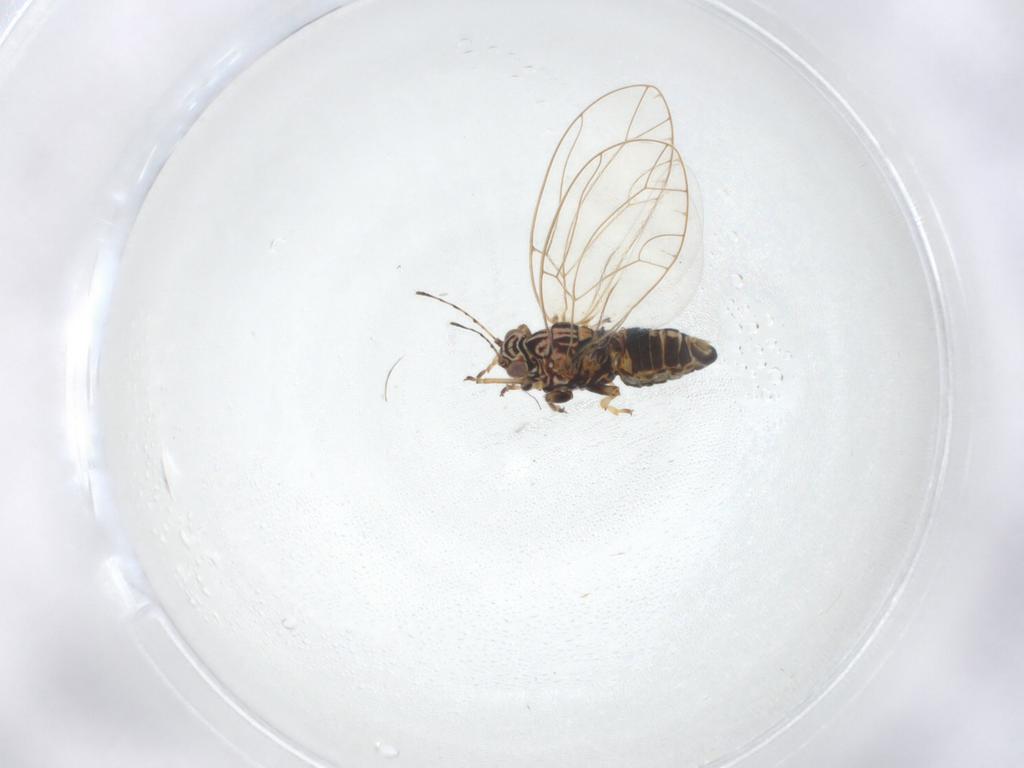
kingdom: Animalia
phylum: Arthropoda
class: Insecta
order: Hemiptera
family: Triozidae
